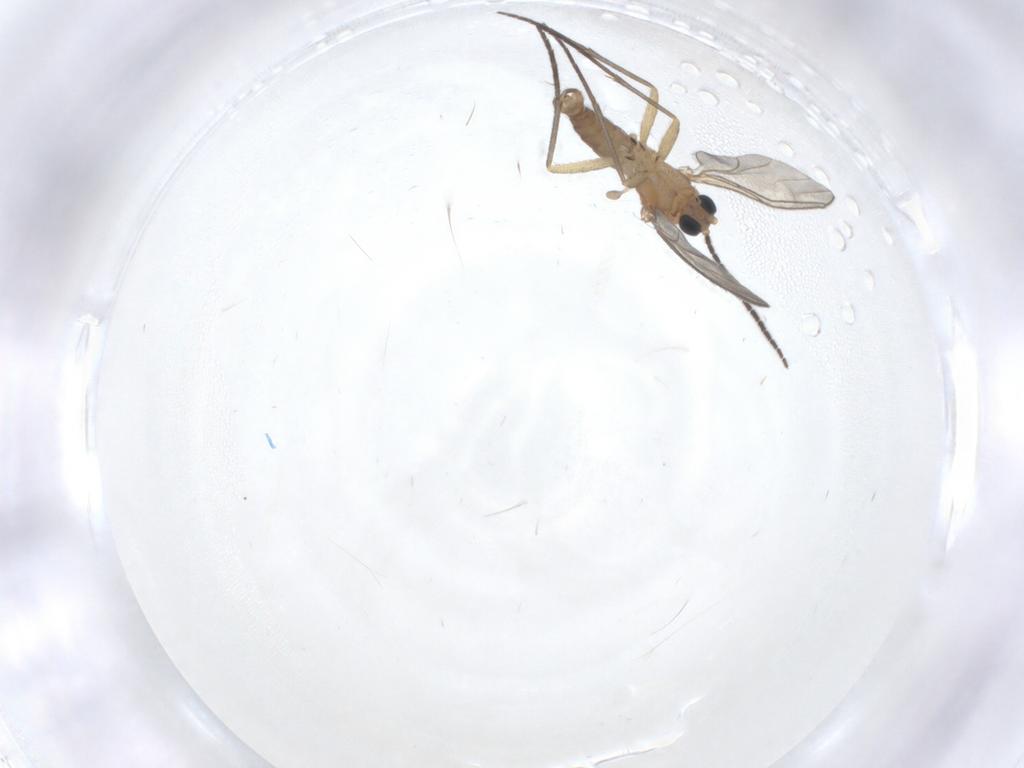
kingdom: Animalia
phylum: Arthropoda
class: Insecta
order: Diptera
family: Sciaridae
